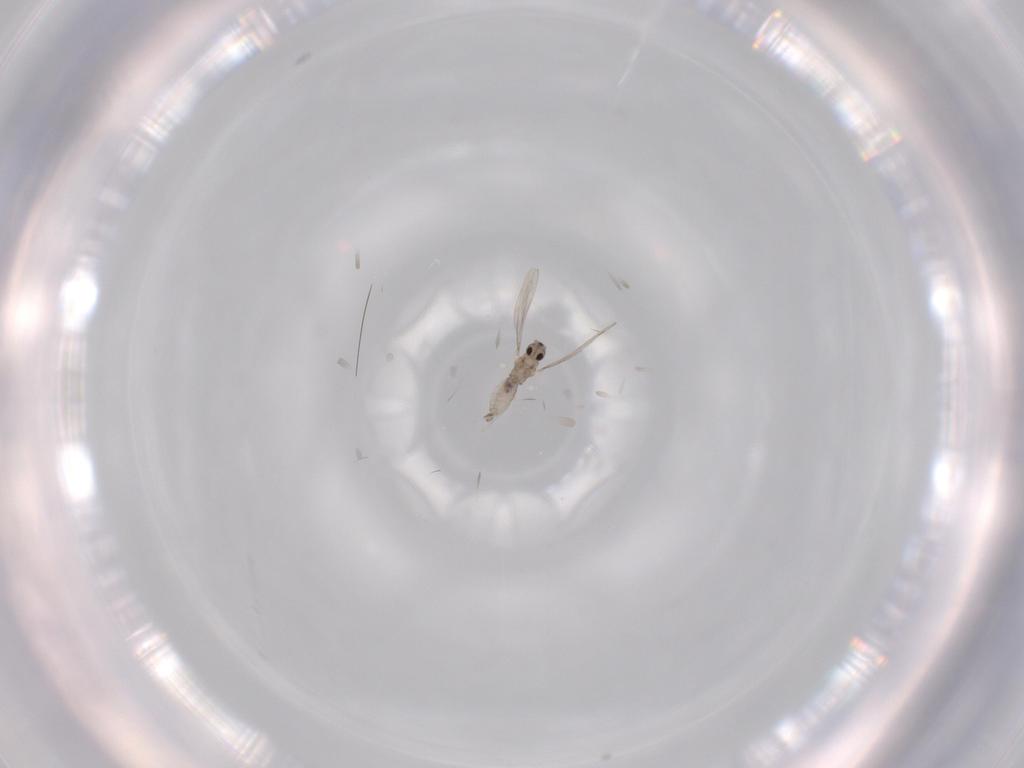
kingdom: Animalia
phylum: Arthropoda
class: Insecta
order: Diptera
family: Cecidomyiidae
